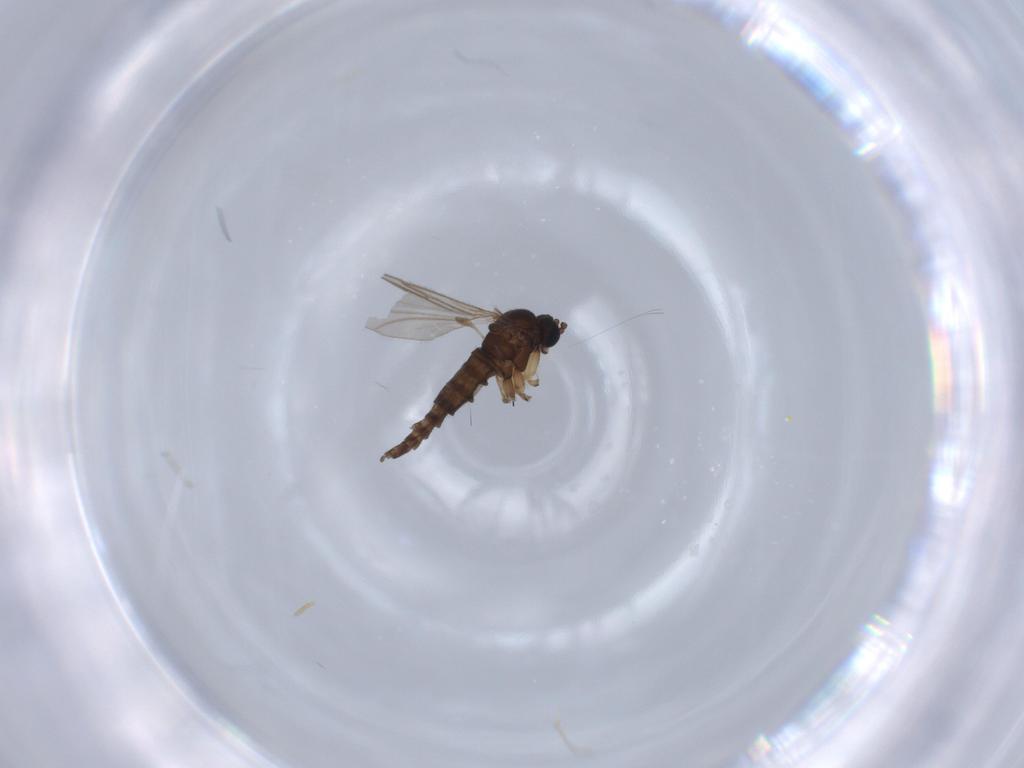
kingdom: Animalia
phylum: Arthropoda
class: Insecta
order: Diptera
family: Sciaridae
